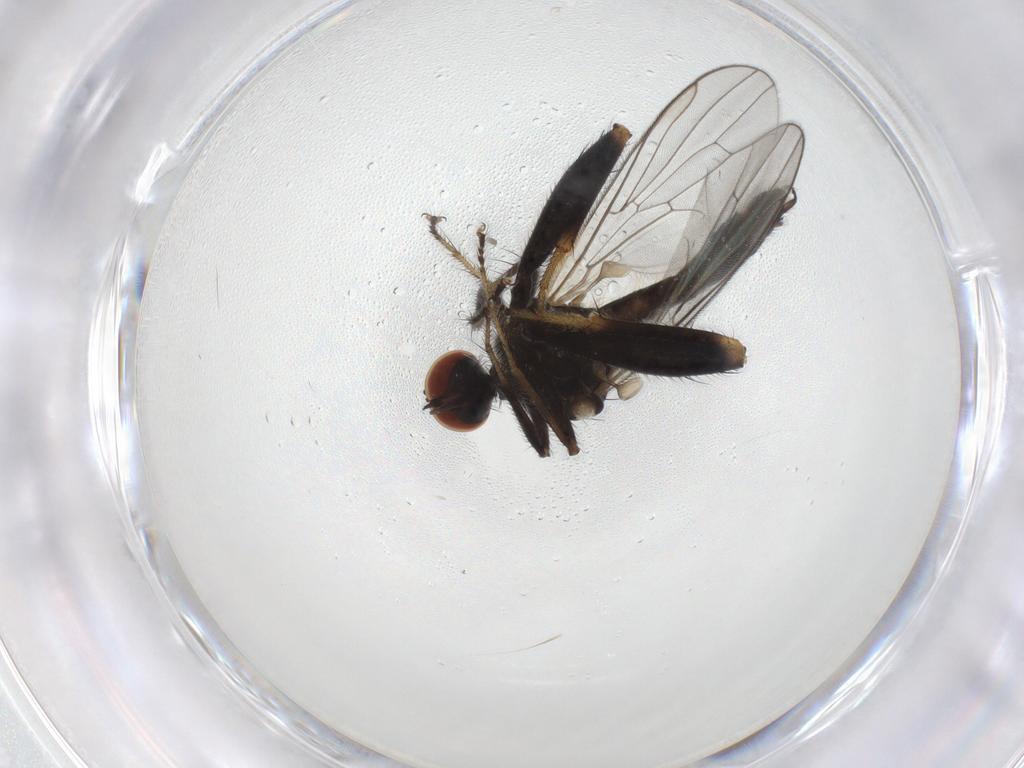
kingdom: Animalia
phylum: Arthropoda
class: Insecta
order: Diptera
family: Hybotidae
